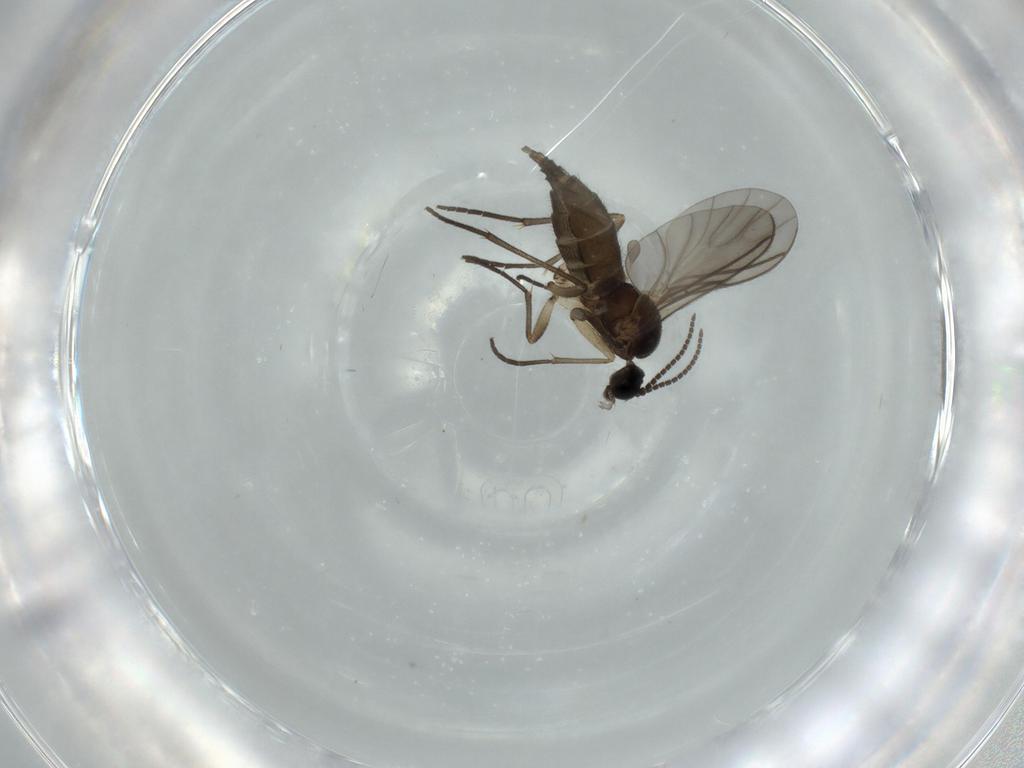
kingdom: Animalia
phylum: Arthropoda
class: Insecta
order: Diptera
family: Sciaridae
